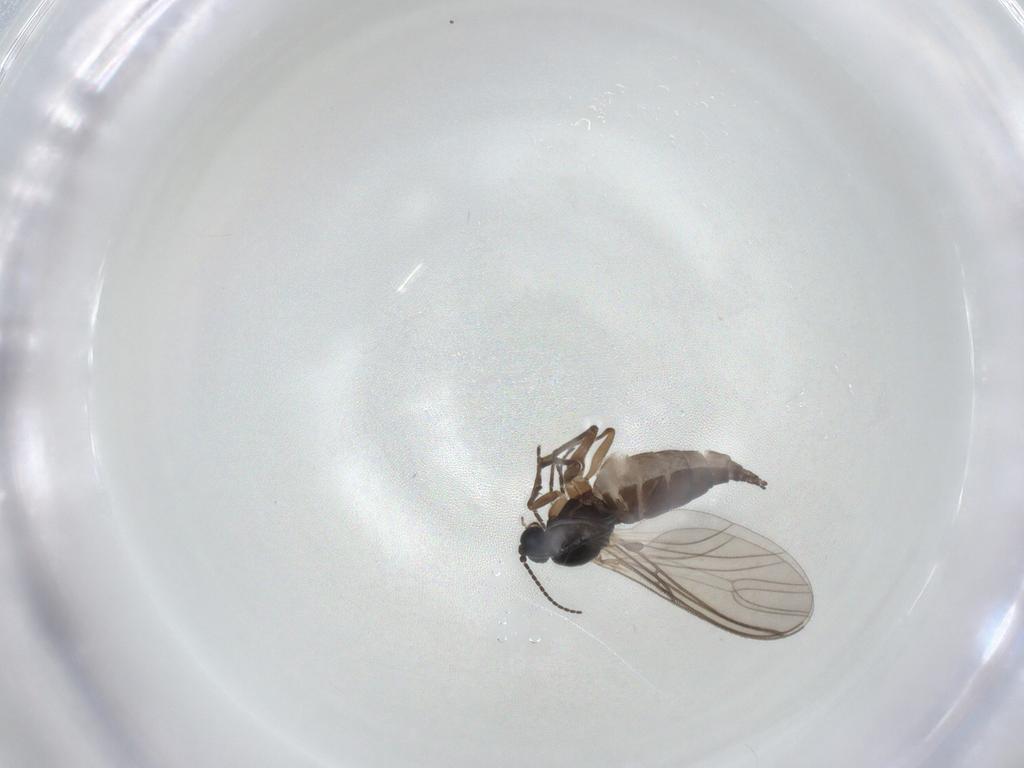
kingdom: Animalia
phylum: Arthropoda
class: Insecta
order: Diptera
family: Sciaridae
